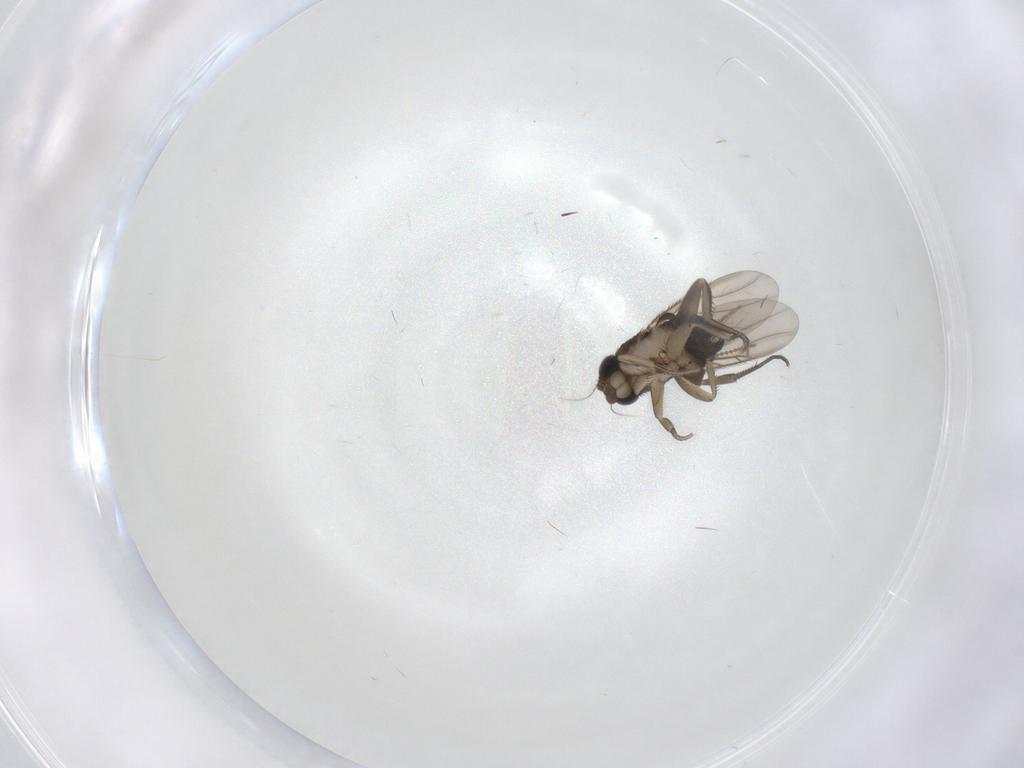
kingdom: Animalia
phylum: Arthropoda
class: Insecta
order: Diptera
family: Phoridae
